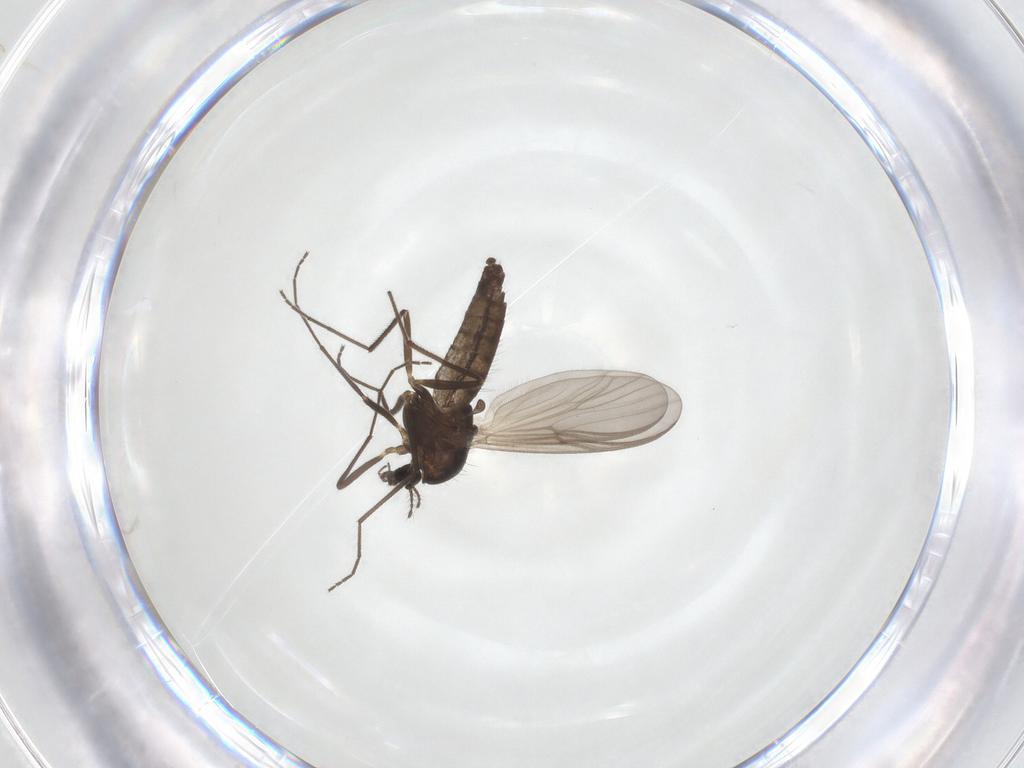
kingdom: Animalia
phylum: Arthropoda
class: Insecta
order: Diptera
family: Chironomidae
